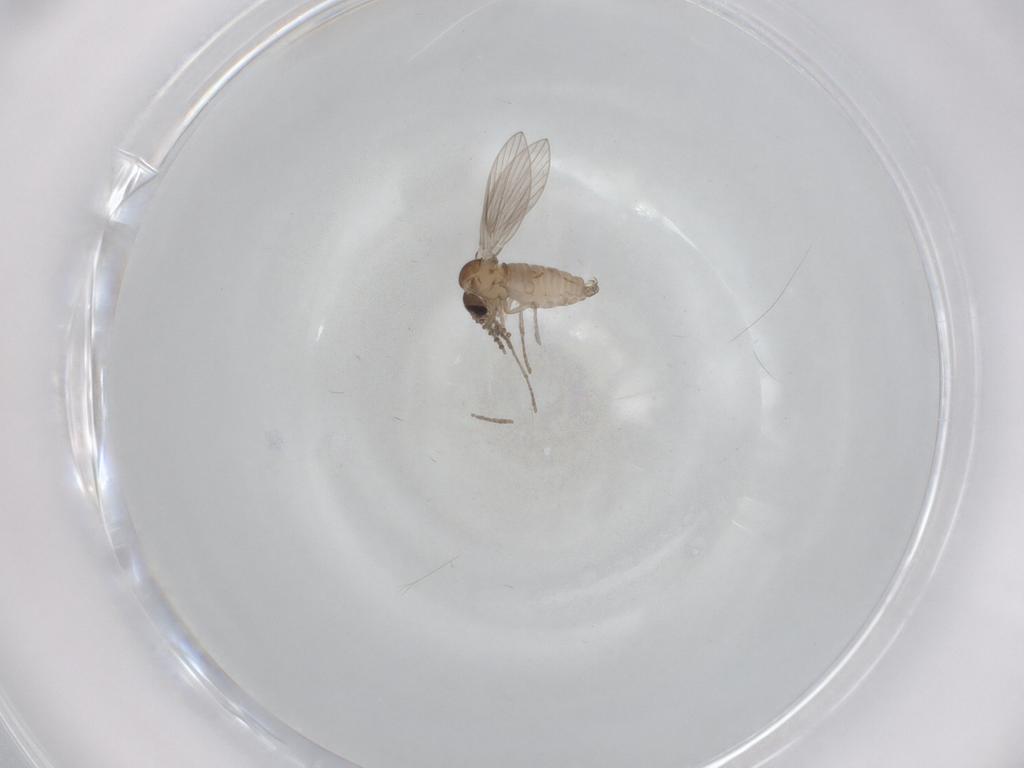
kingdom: Animalia
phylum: Arthropoda
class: Insecta
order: Diptera
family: Psychodidae
